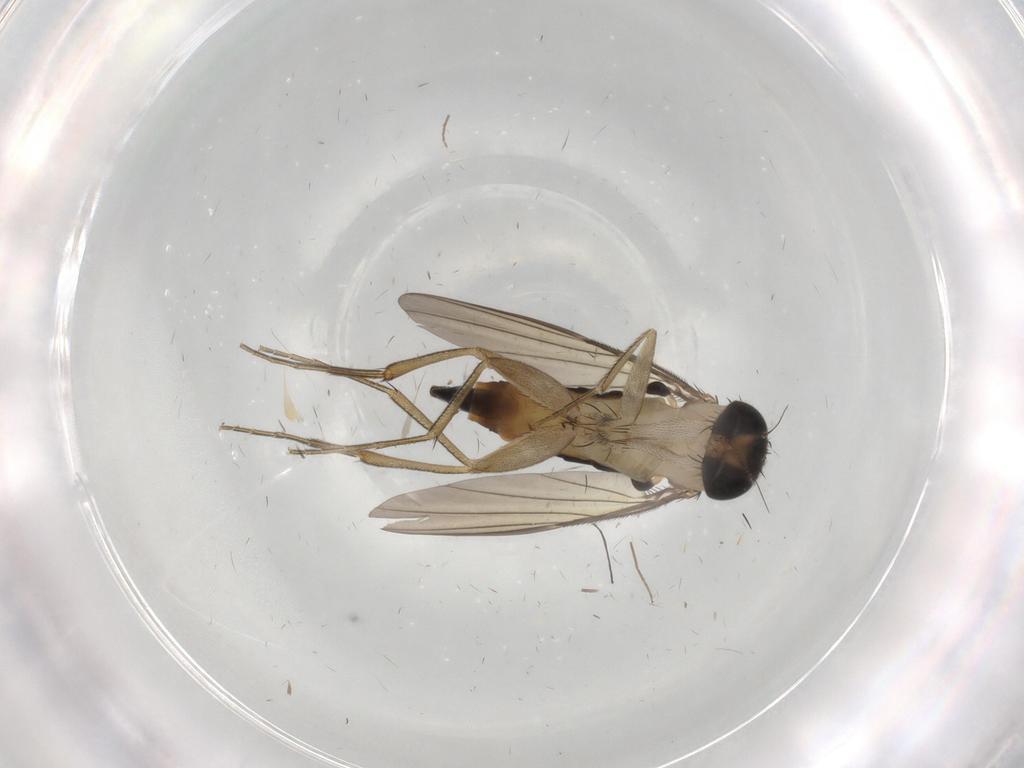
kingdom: Animalia
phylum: Arthropoda
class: Insecta
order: Diptera
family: Phoridae
